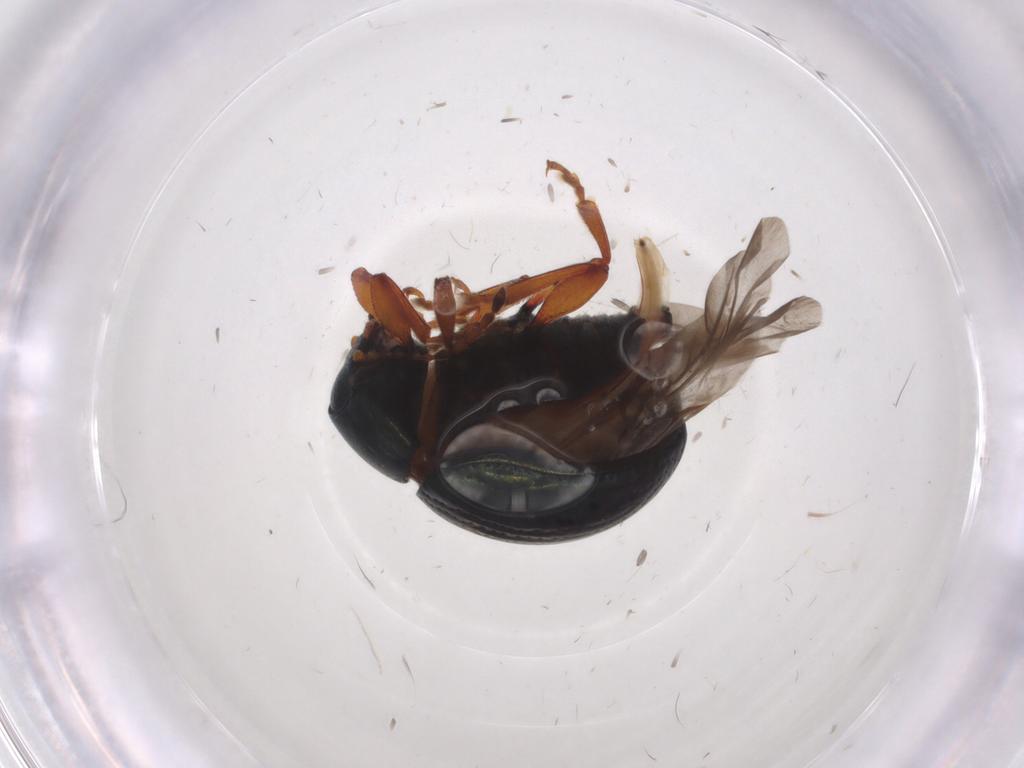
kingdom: Animalia
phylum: Arthropoda
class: Insecta
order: Coleoptera
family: Chrysomelidae
